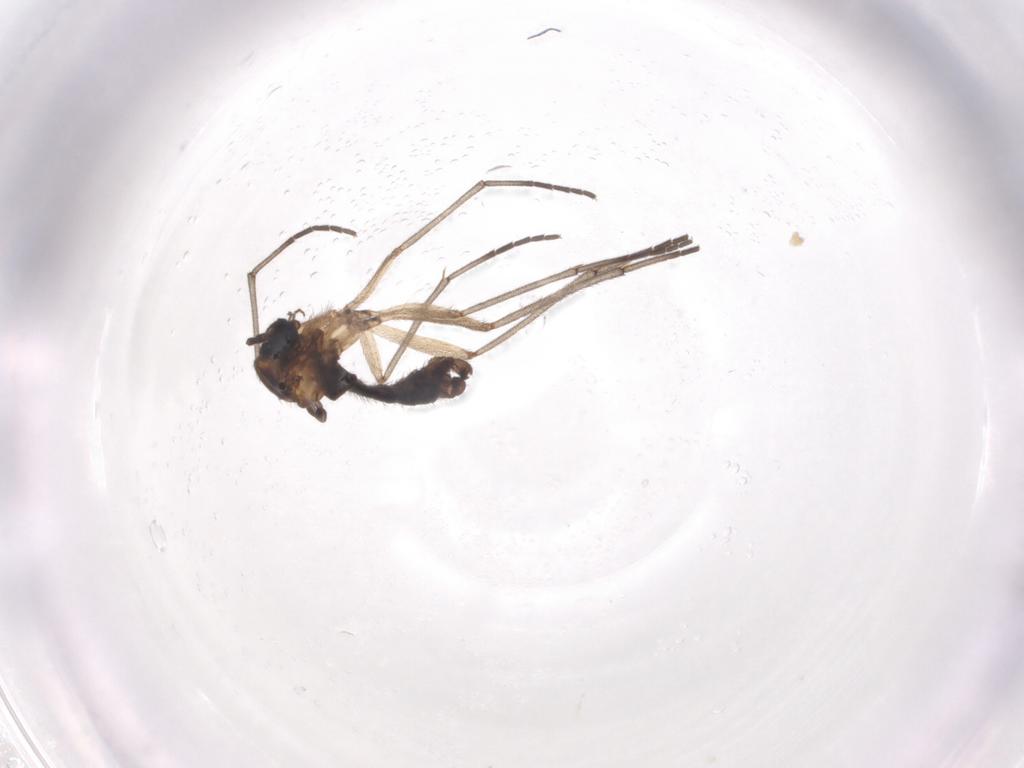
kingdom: Animalia
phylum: Arthropoda
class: Insecta
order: Diptera
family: Sciaridae
